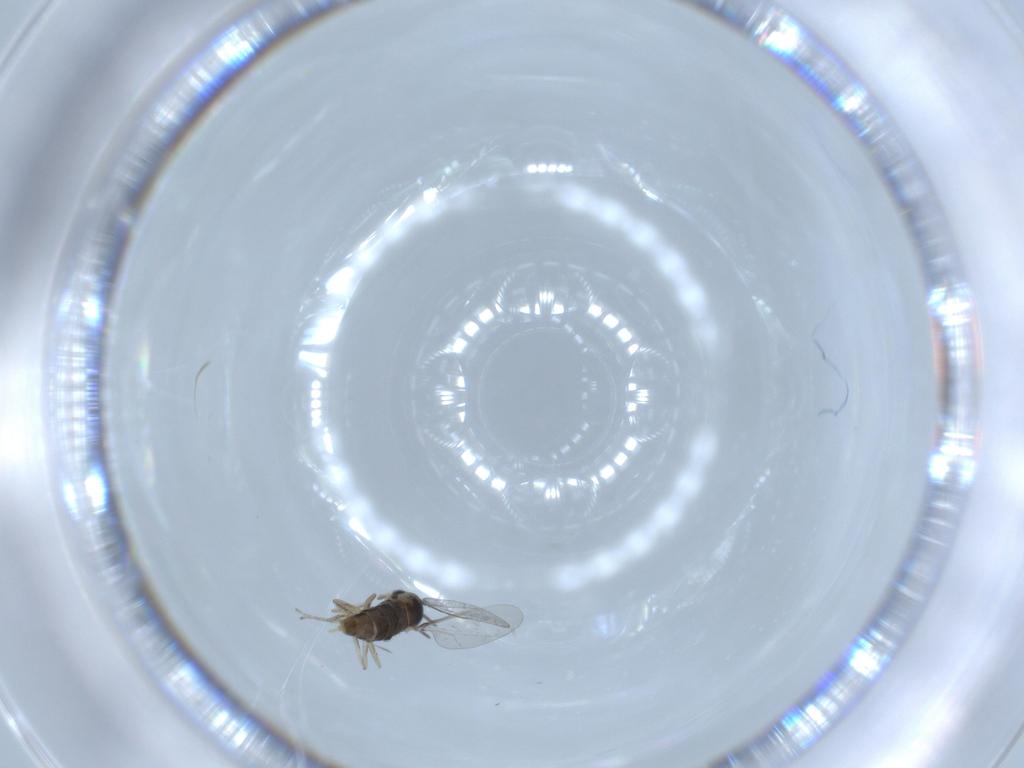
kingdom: Animalia
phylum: Arthropoda
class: Insecta
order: Diptera
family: Cecidomyiidae
